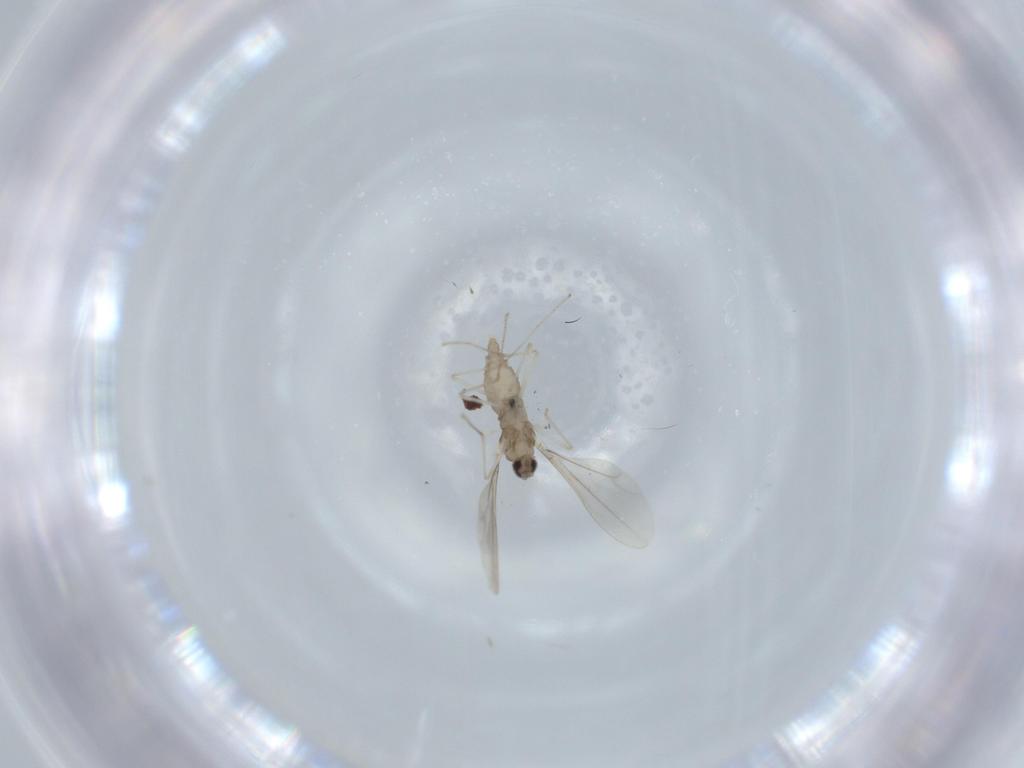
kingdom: Animalia
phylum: Arthropoda
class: Insecta
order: Diptera
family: Cecidomyiidae
